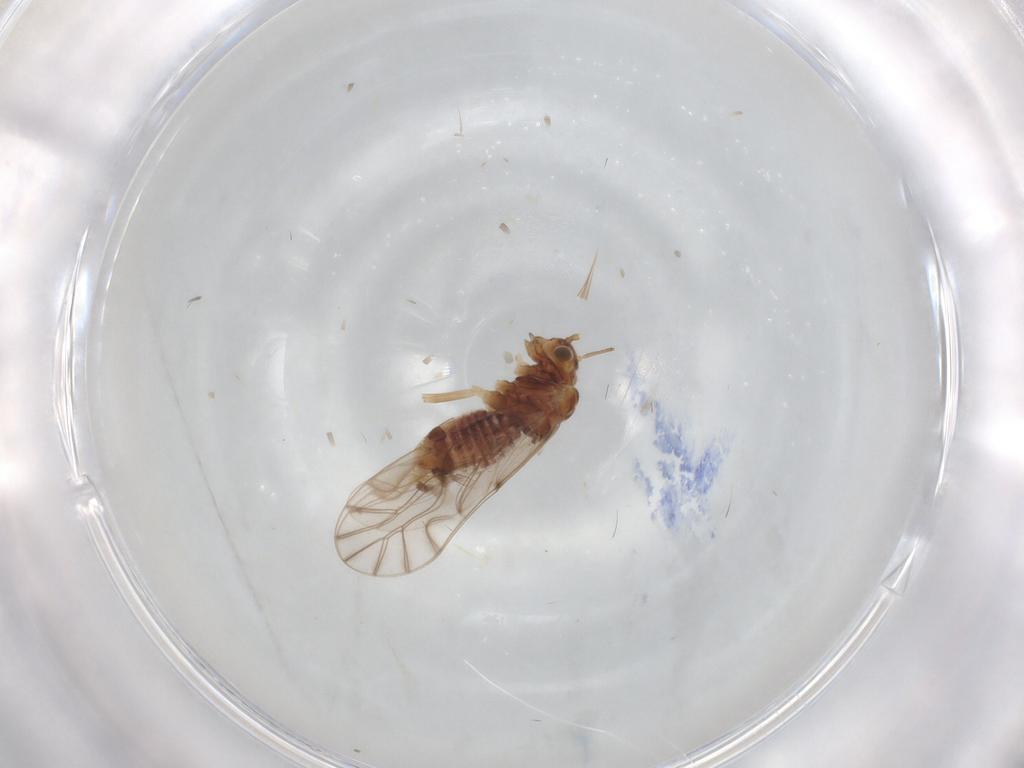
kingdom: Animalia
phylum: Arthropoda
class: Insecta
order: Psocodea
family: Lachesillidae
